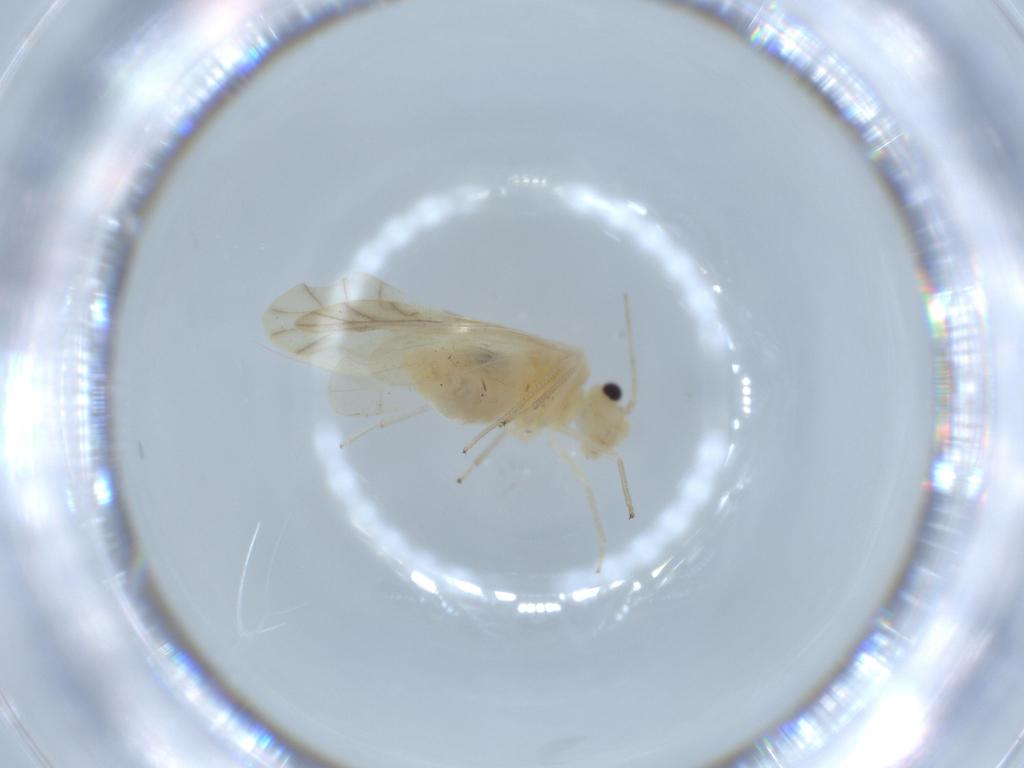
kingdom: Animalia
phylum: Arthropoda
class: Insecta
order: Psocodea
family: Caeciliusidae
